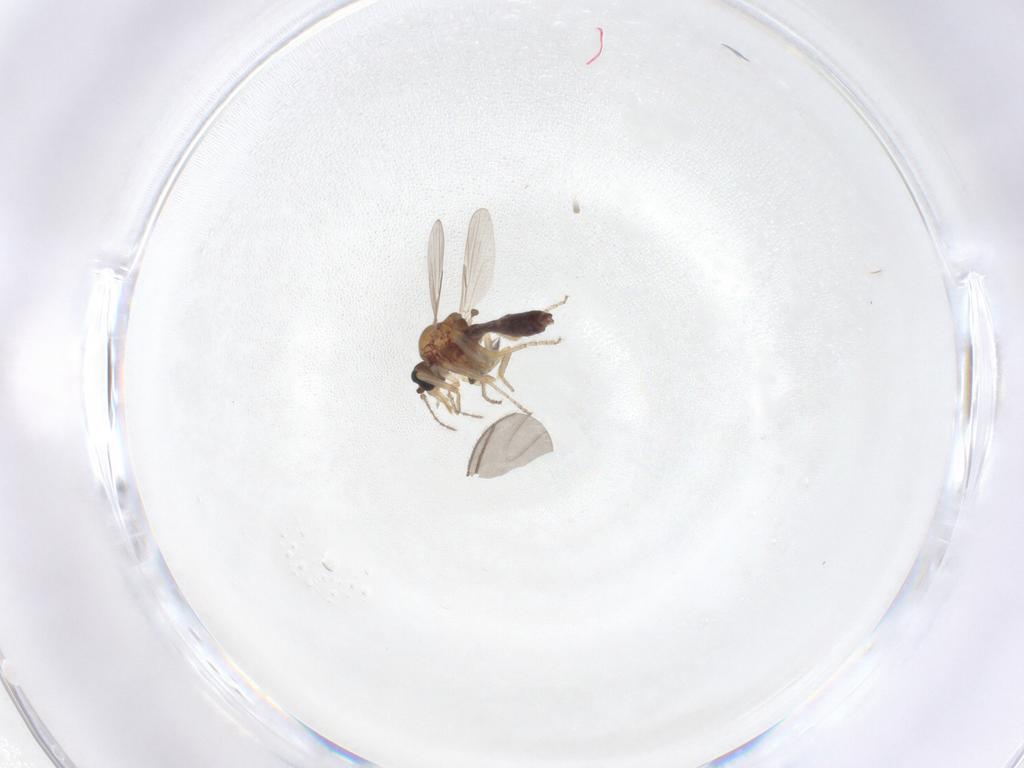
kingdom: Animalia
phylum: Arthropoda
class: Insecta
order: Diptera
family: Ceratopogonidae
